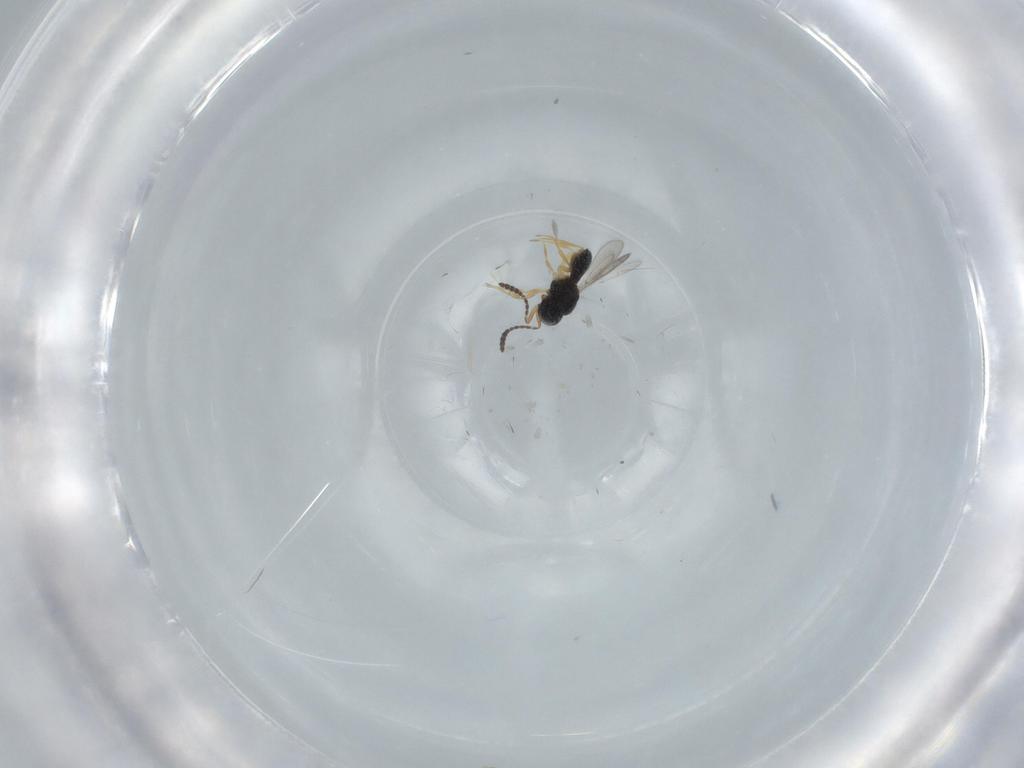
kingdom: Animalia
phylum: Arthropoda
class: Insecta
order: Hymenoptera
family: Scelionidae
